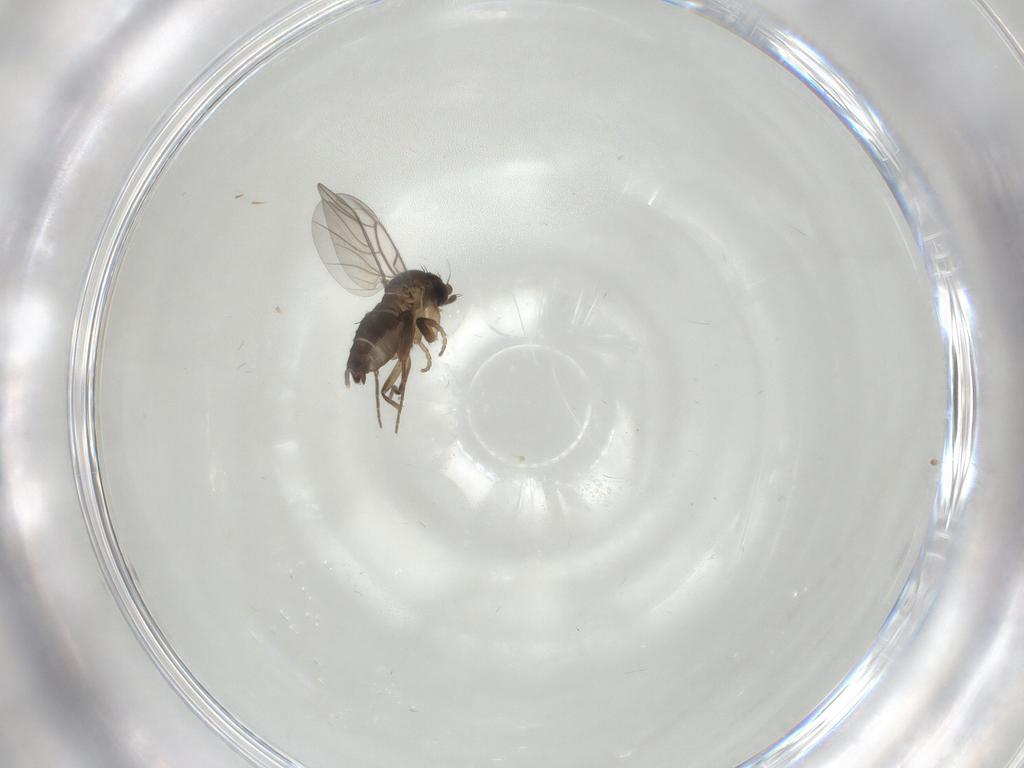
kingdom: Animalia
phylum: Arthropoda
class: Insecta
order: Diptera
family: Phoridae
